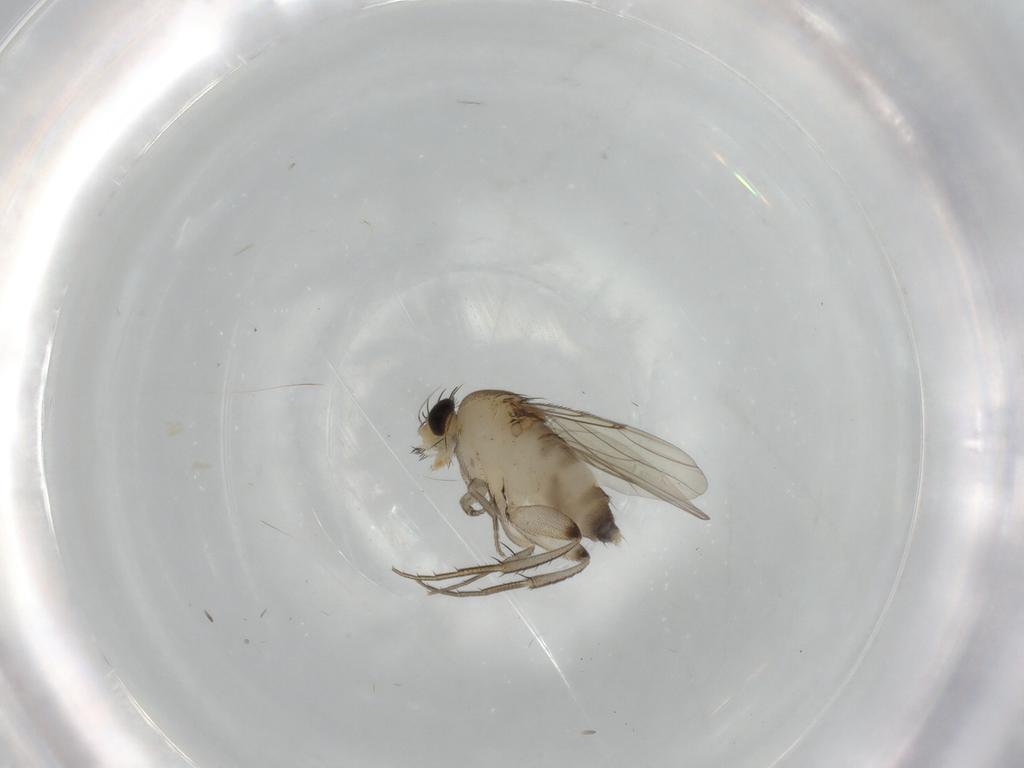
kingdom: Animalia
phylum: Arthropoda
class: Insecta
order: Diptera
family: Phoridae
